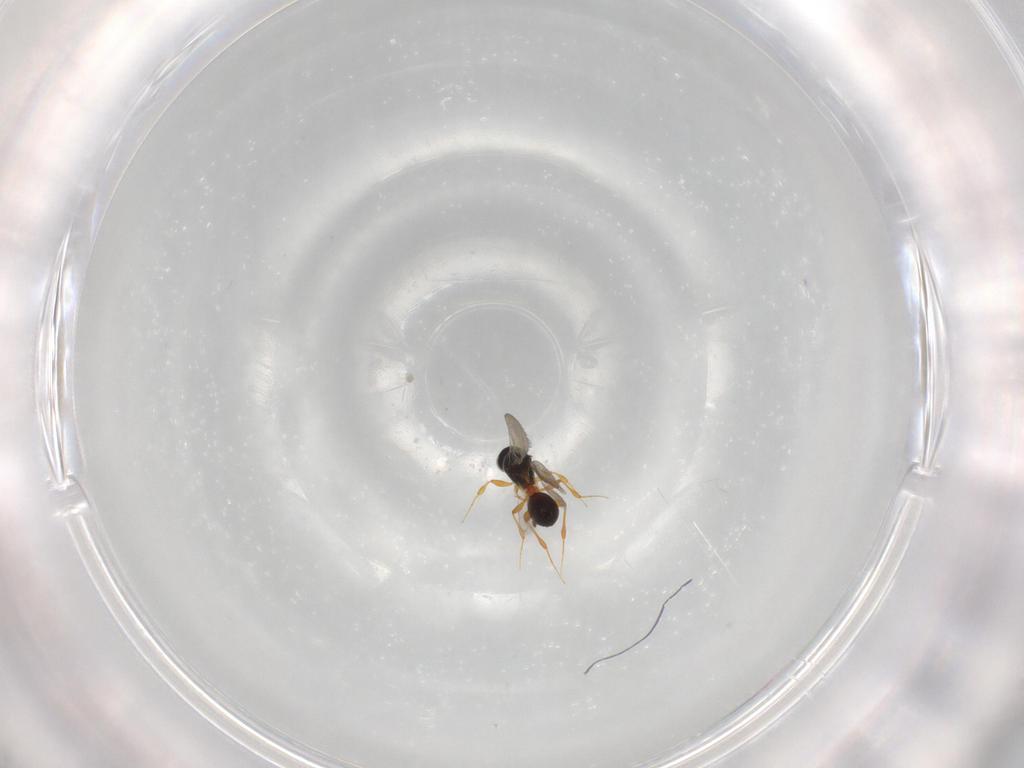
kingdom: Animalia
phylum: Arthropoda
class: Insecta
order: Hymenoptera
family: Platygastridae
